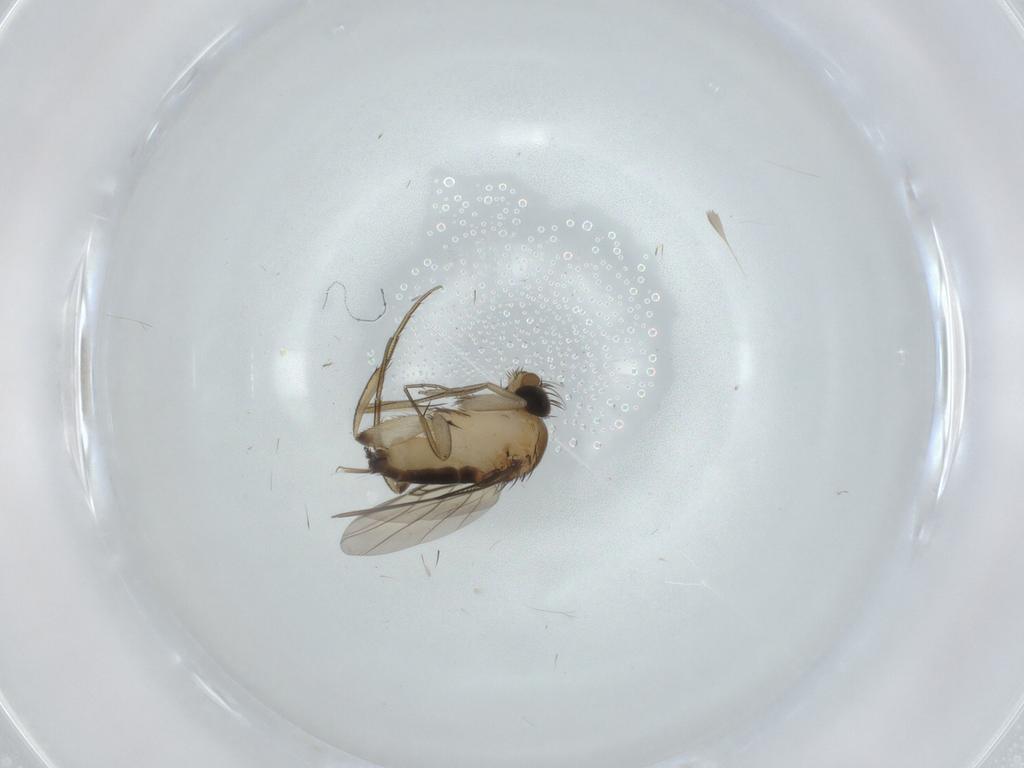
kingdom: Animalia
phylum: Arthropoda
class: Insecta
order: Diptera
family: Phoridae
